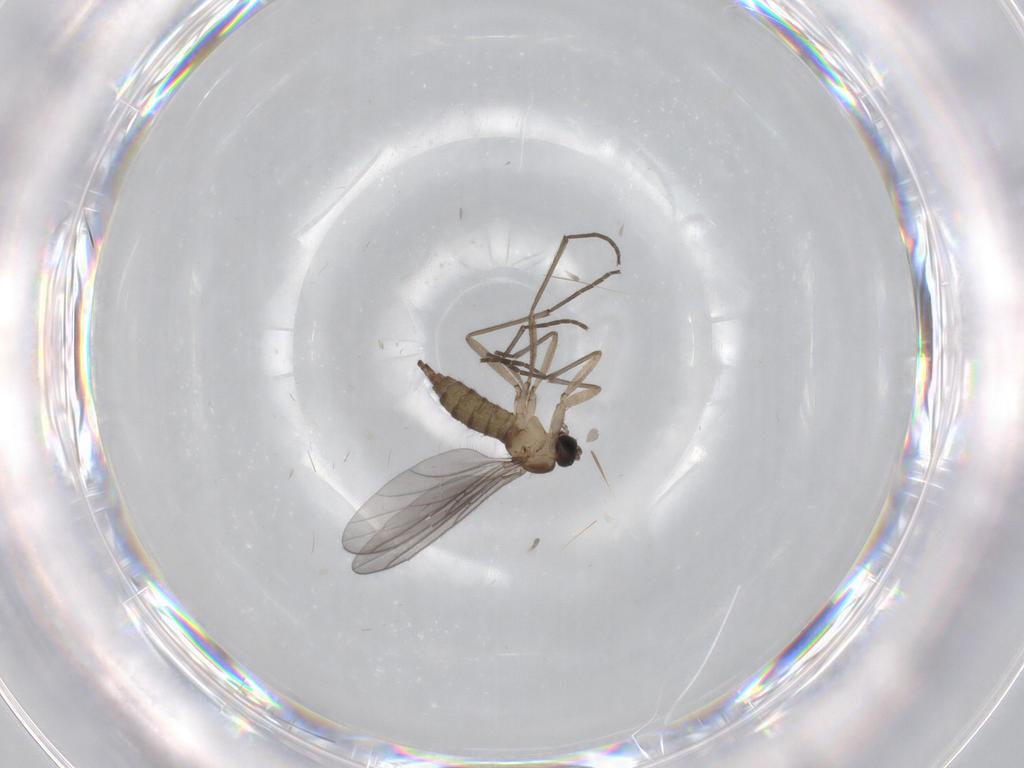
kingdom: Animalia
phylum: Arthropoda
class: Insecta
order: Diptera
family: Sciaridae
